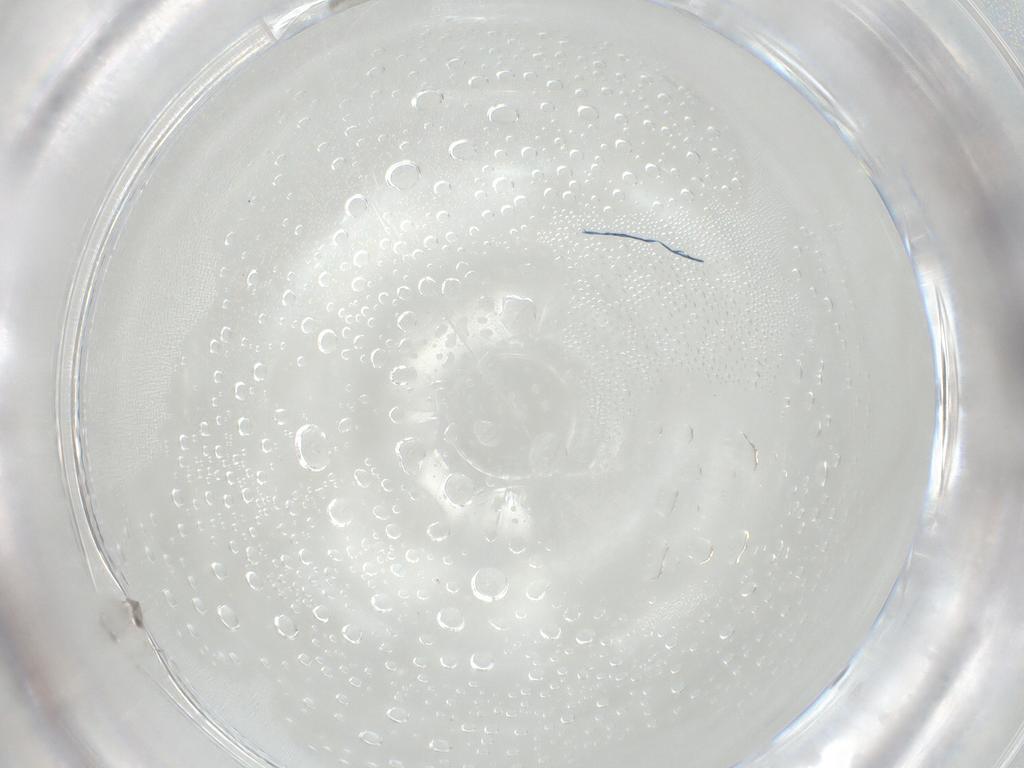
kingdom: Animalia
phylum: Arthropoda
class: Insecta
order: Diptera
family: Cecidomyiidae
